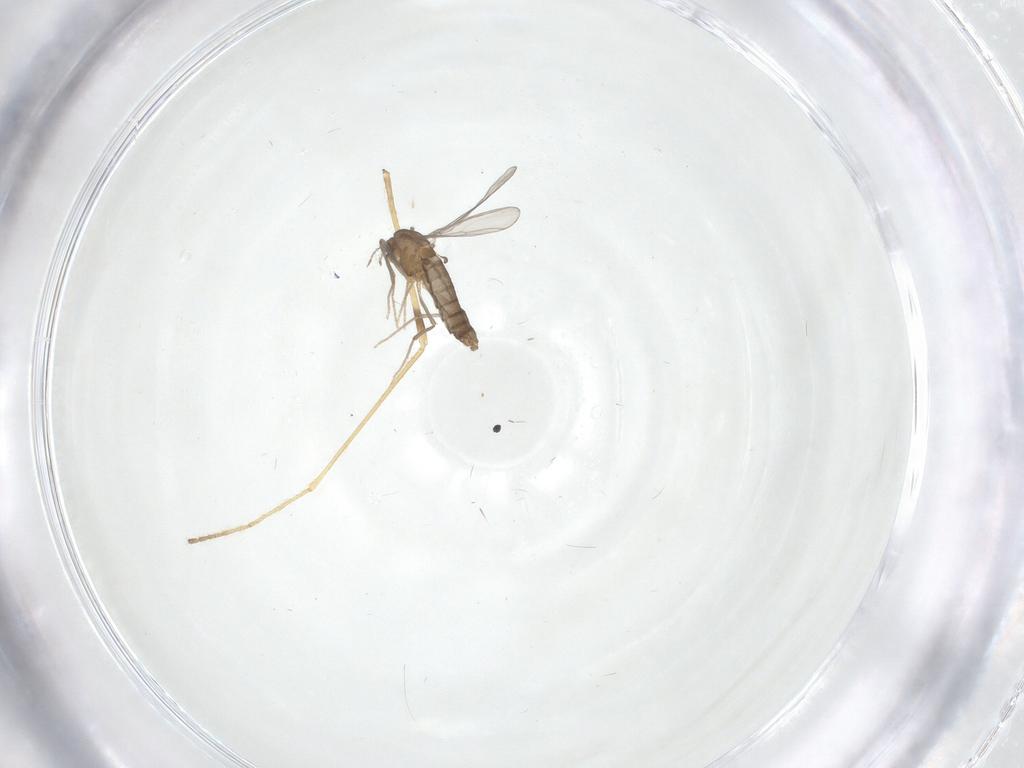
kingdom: Animalia
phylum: Arthropoda
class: Insecta
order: Diptera
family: Chironomidae
